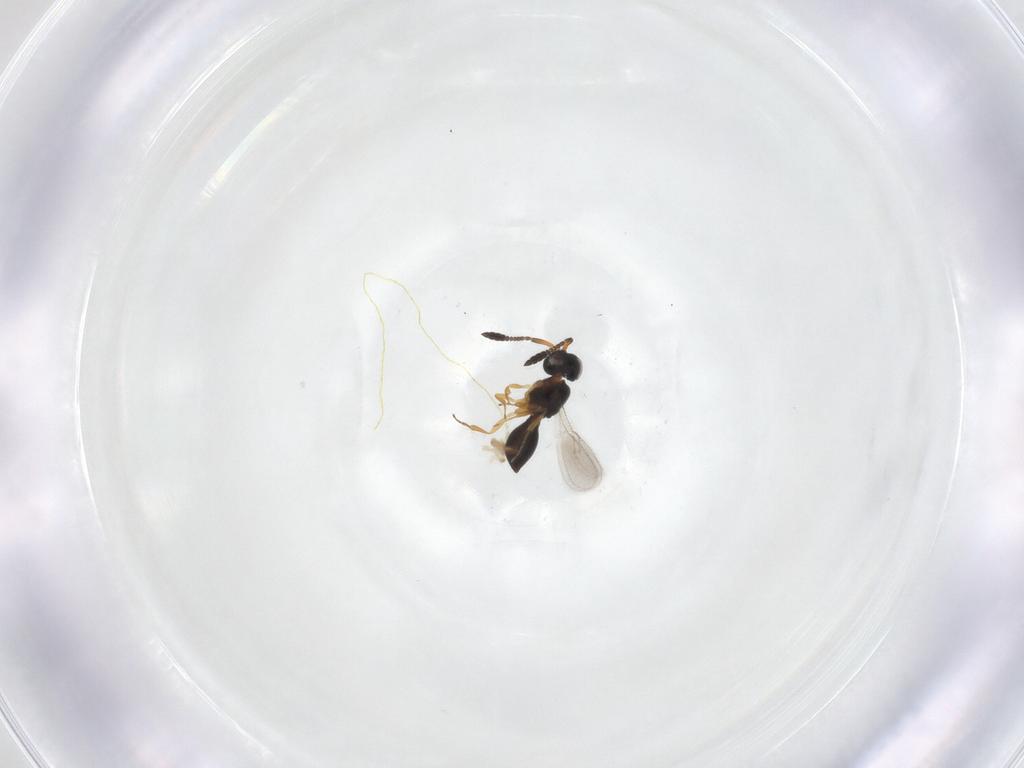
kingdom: Animalia
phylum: Arthropoda
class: Insecta
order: Hymenoptera
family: Scelionidae
